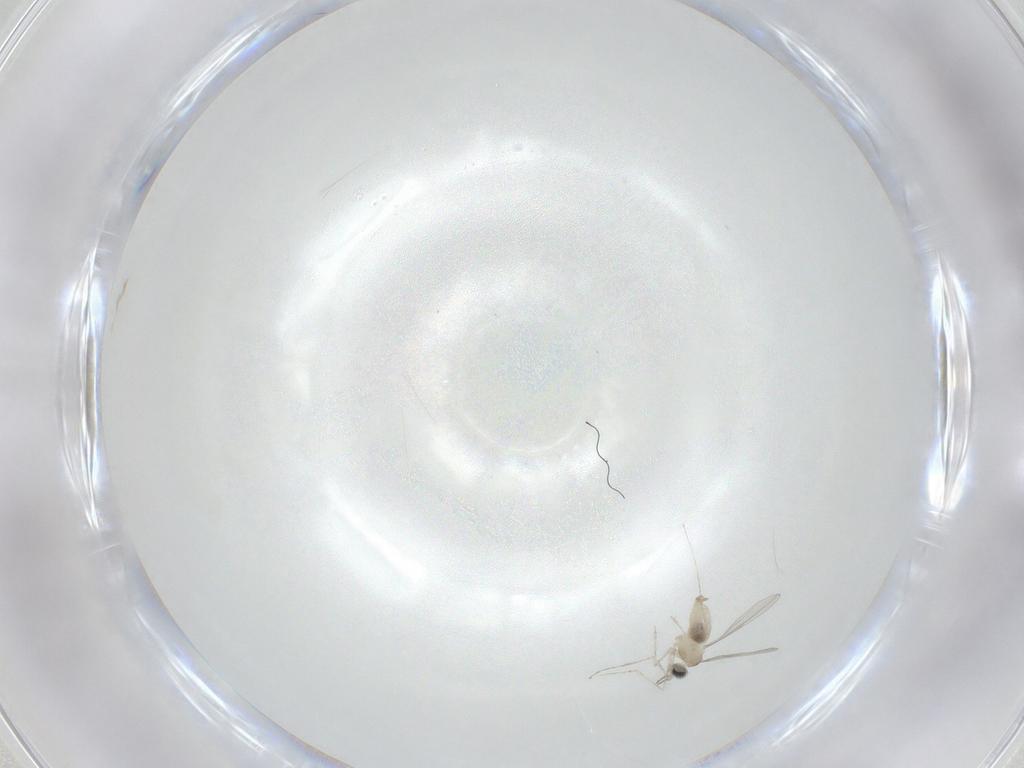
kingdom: Animalia
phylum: Arthropoda
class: Insecta
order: Diptera
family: Cecidomyiidae
